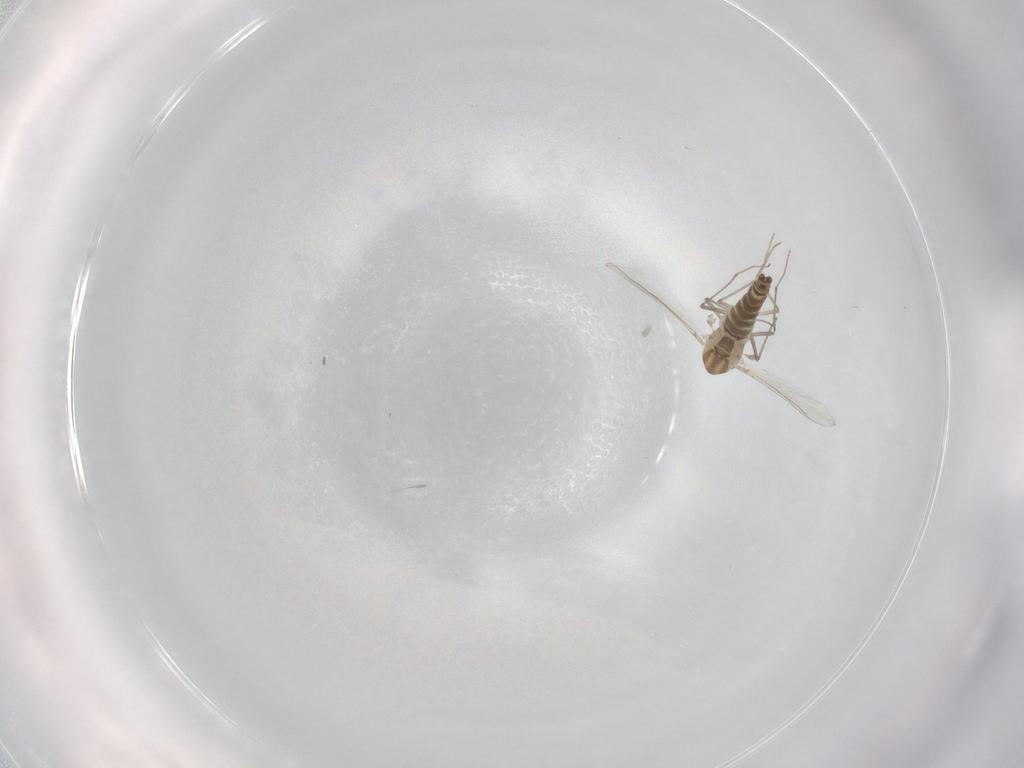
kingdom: Animalia
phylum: Arthropoda
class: Insecta
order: Diptera
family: Chironomidae
